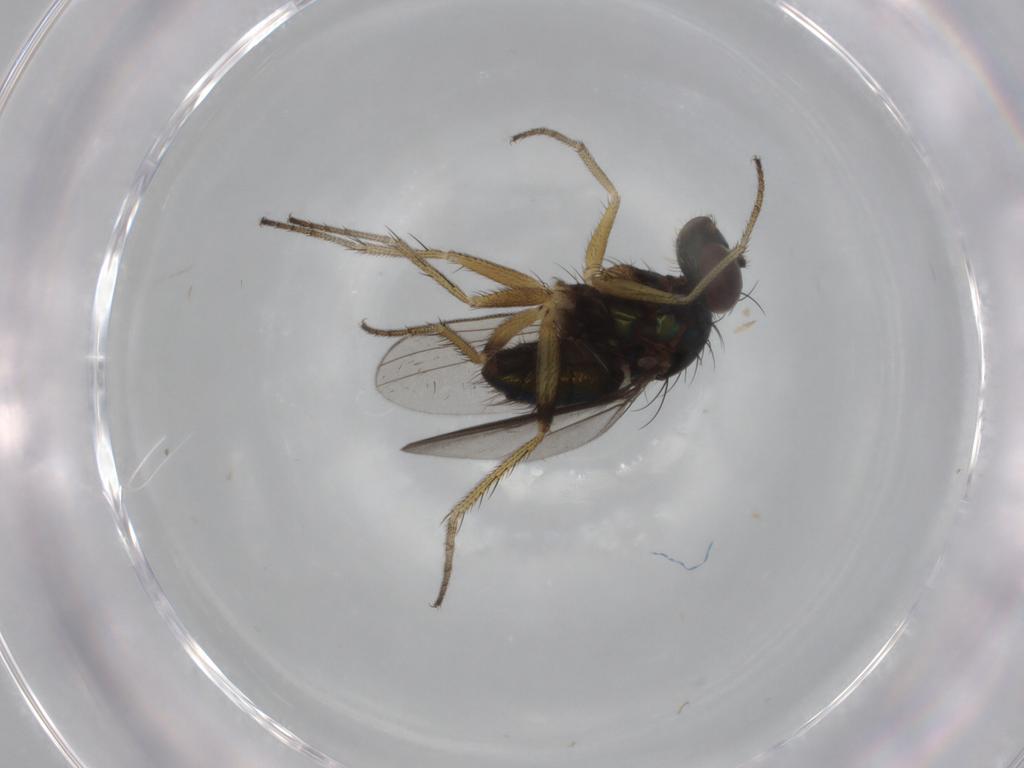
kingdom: Animalia
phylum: Arthropoda
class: Insecta
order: Diptera
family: Dolichopodidae
